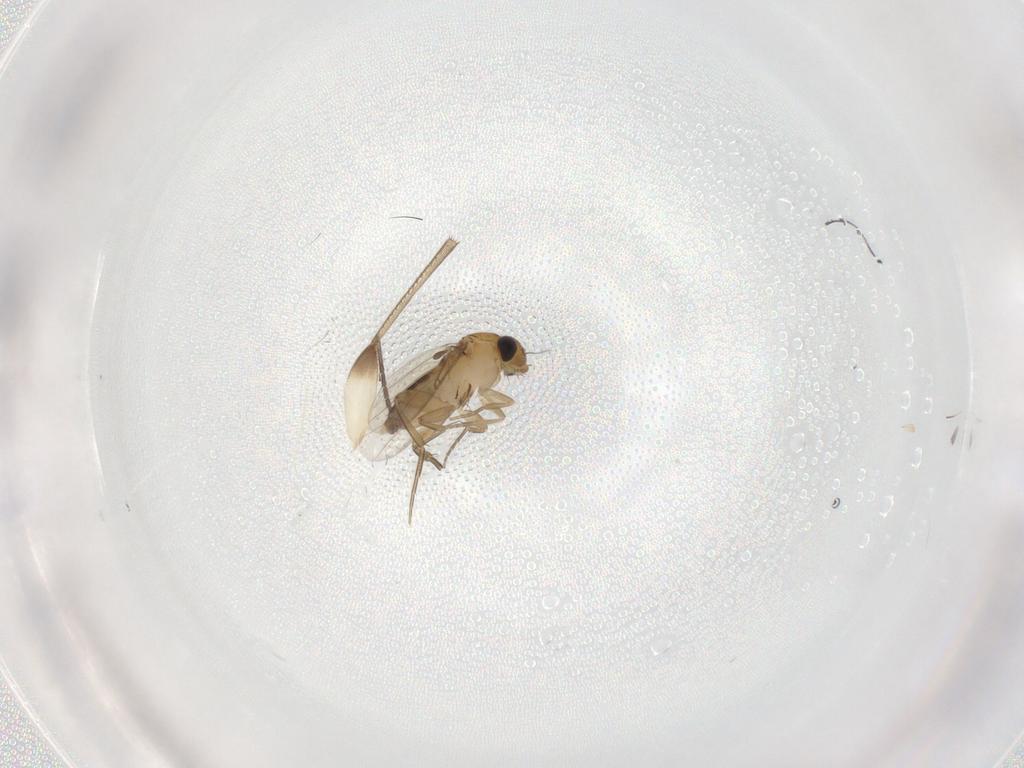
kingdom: Animalia
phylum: Arthropoda
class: Insecta
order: Diptera
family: Phoridae
